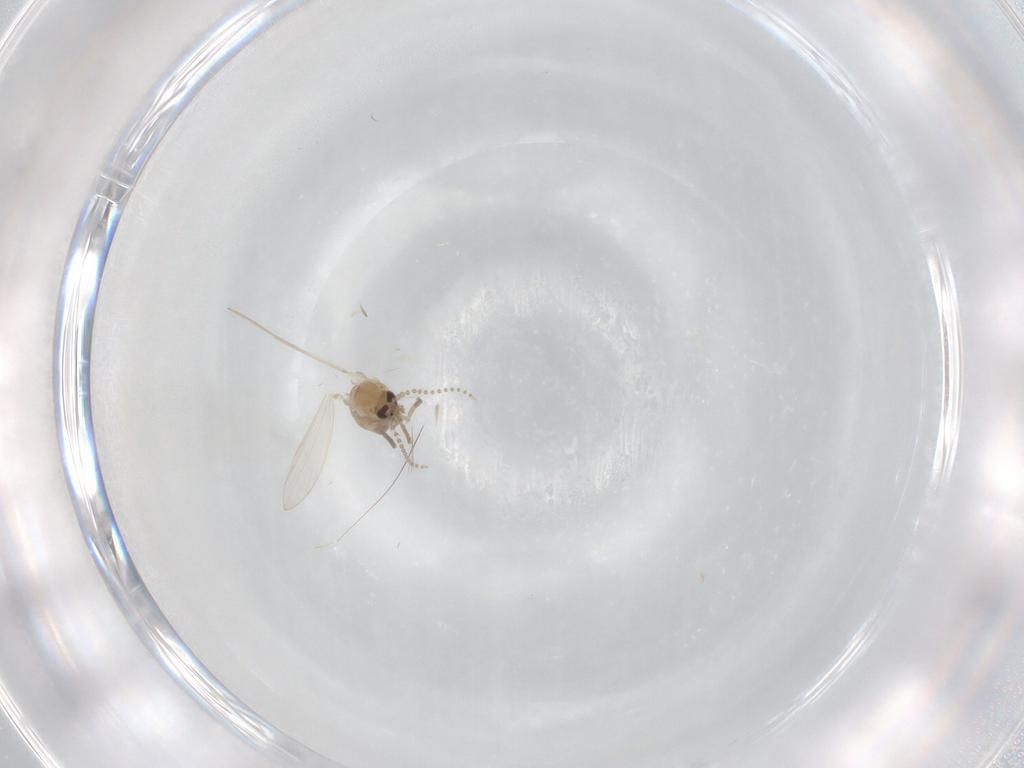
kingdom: Animalia
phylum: Arthropoda
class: Insecta
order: Diptera
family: Psychodidae
